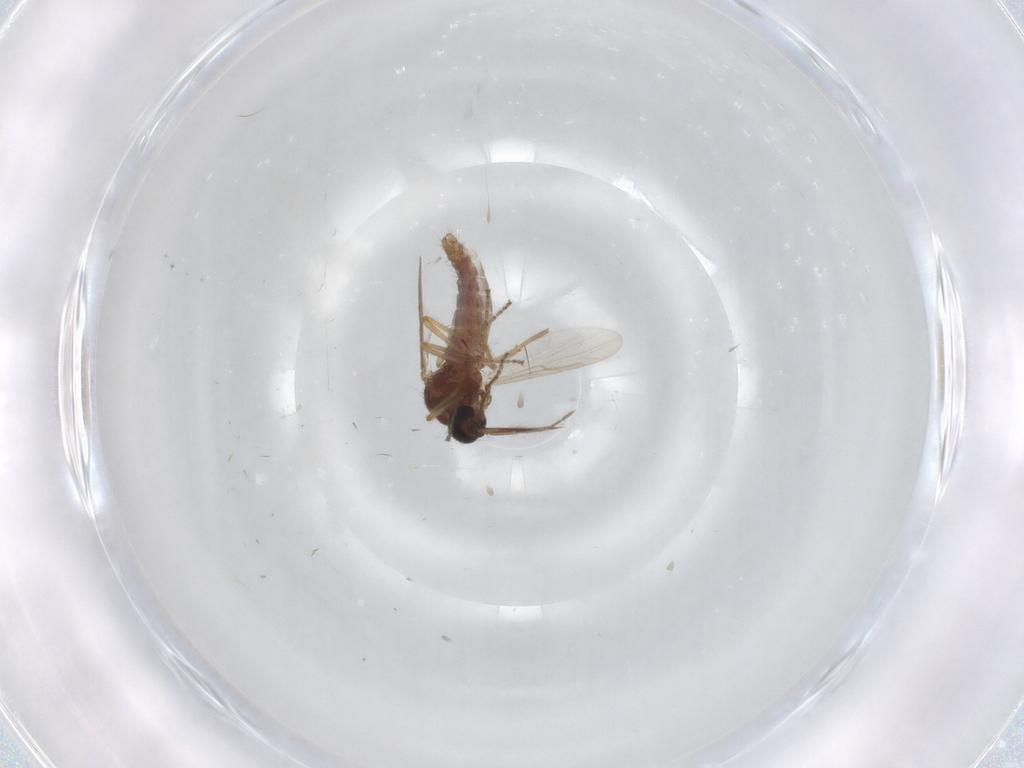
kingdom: Animalia
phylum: Arthropoda
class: Insecta
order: Diptera
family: Ceratopogonidae
